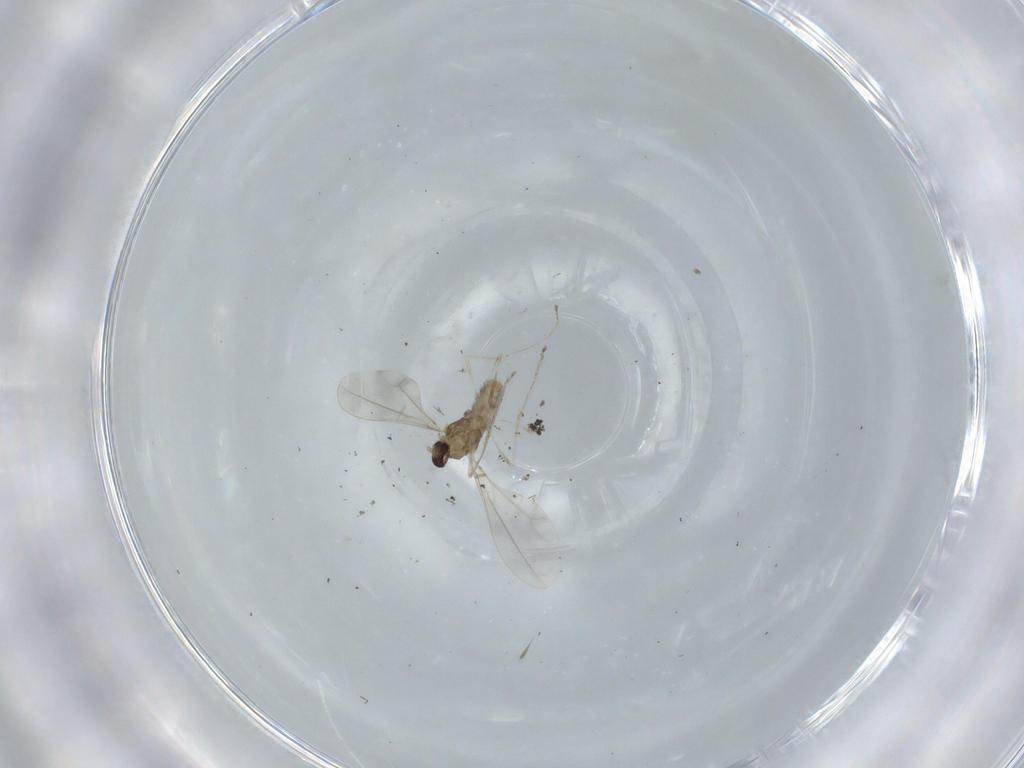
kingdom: Animalia
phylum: Arthropoda
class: Insecta
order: Diptera
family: Cecidomyiidae
